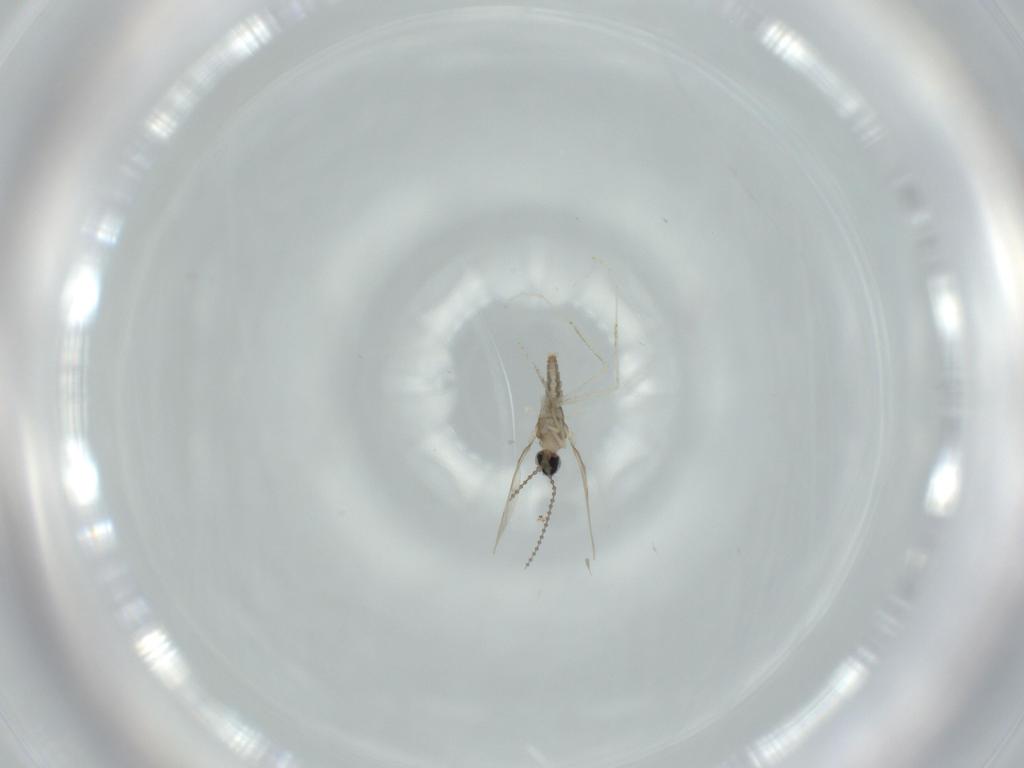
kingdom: Animalia
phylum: Arthropoda
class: Insecta
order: Diptera
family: Cecidomyiidae
